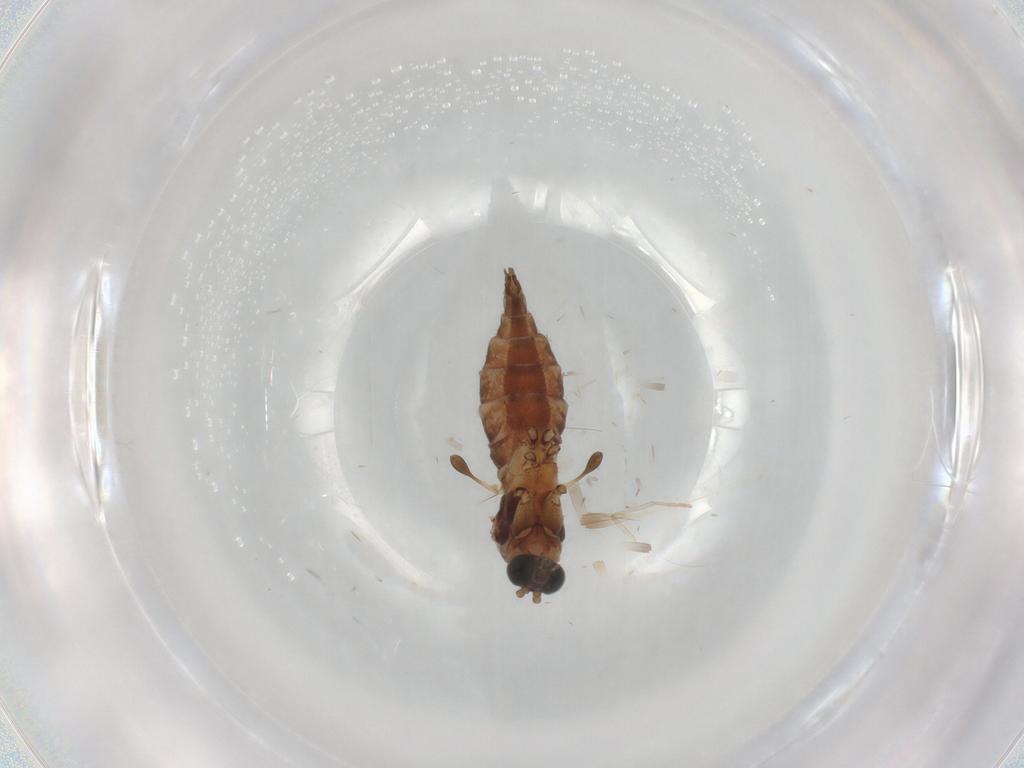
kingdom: Animalia
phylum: Arthropoda
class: Insecta
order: Diptera
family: Sciaridae
